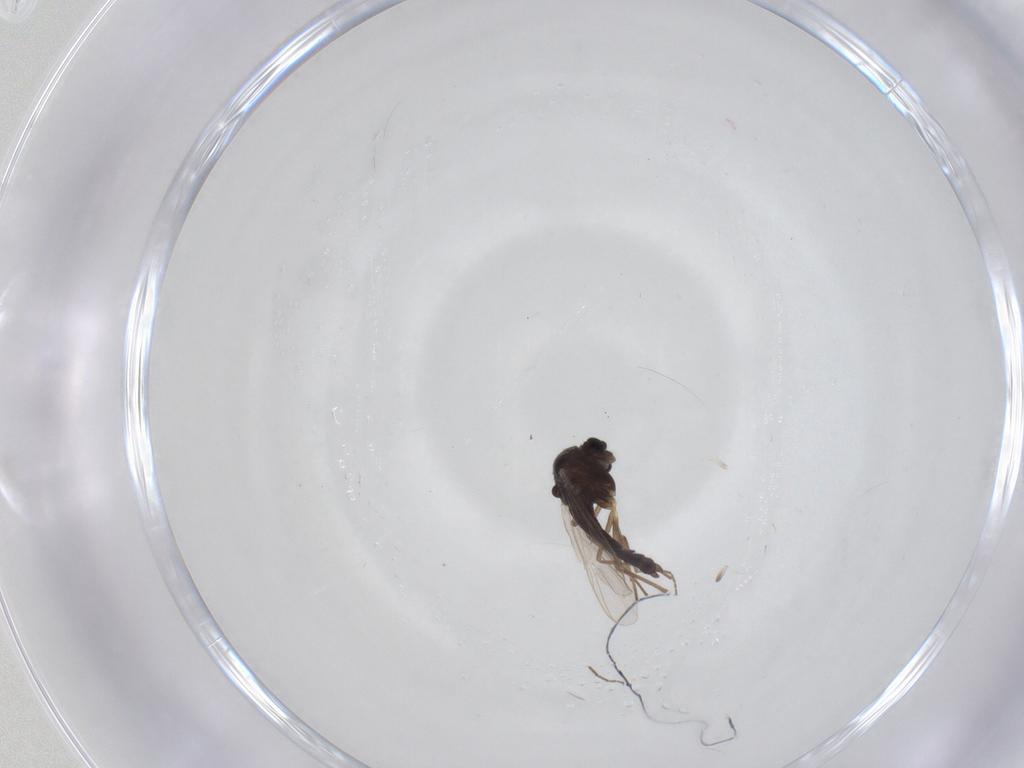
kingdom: Animalia
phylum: Arthropoda
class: Insecta
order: Diptera
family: Chironomidae
